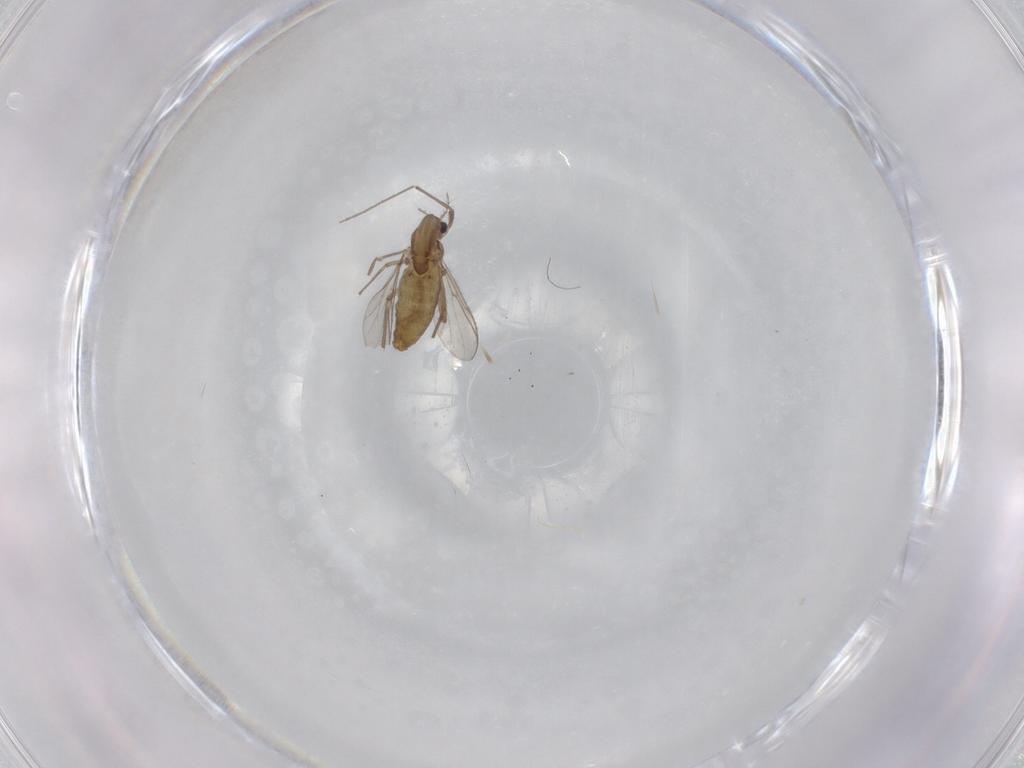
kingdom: Animalia
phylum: Arthropoda
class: Insecta
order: Diptera
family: Chironomidae
